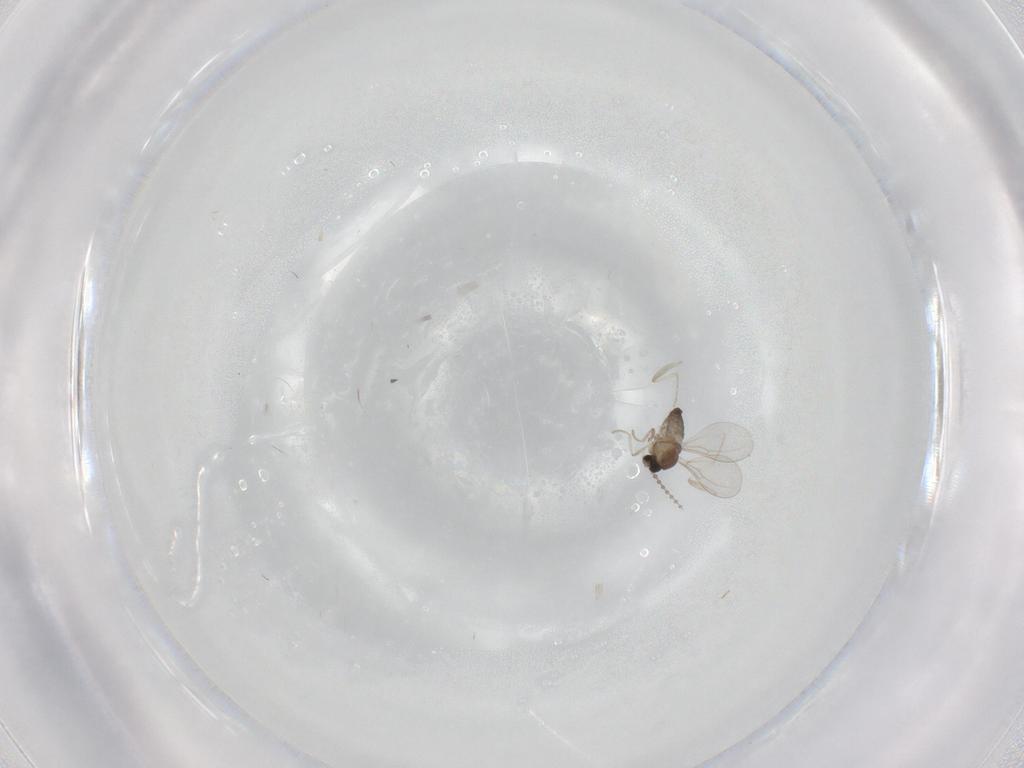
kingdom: Animalia
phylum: Arthropoda
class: Insecta
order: Diptera
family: Cecidomyiidae
